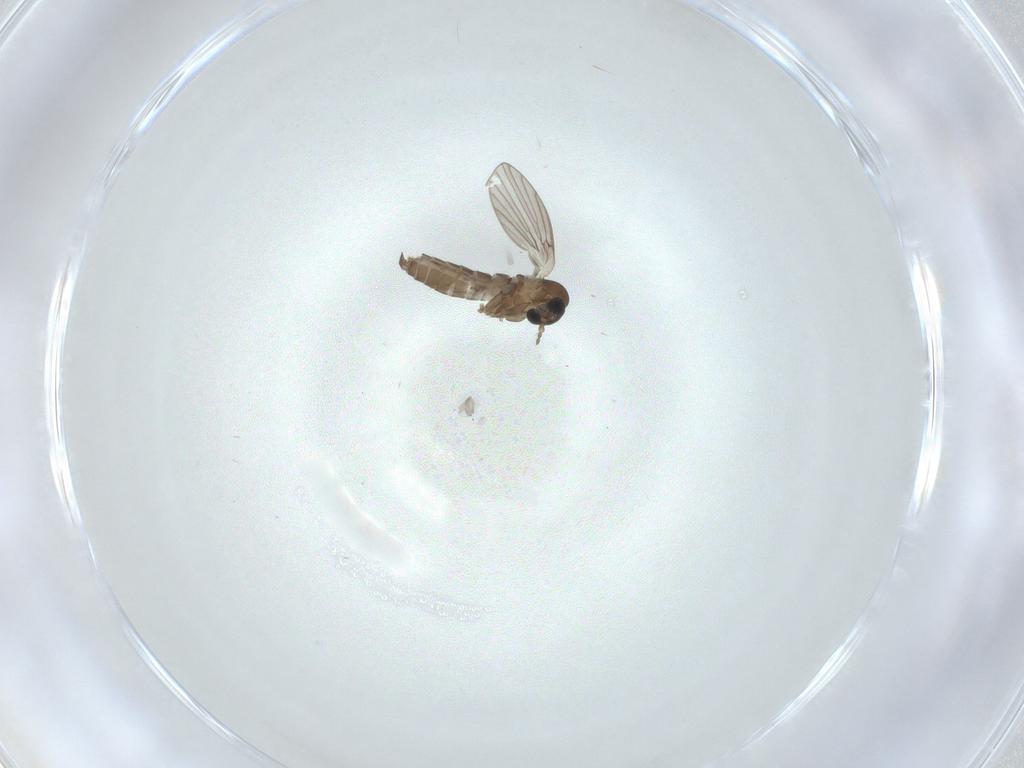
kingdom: Animalia
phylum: Arthropoda
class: Insecta
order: Diptera
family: Psychodidae
